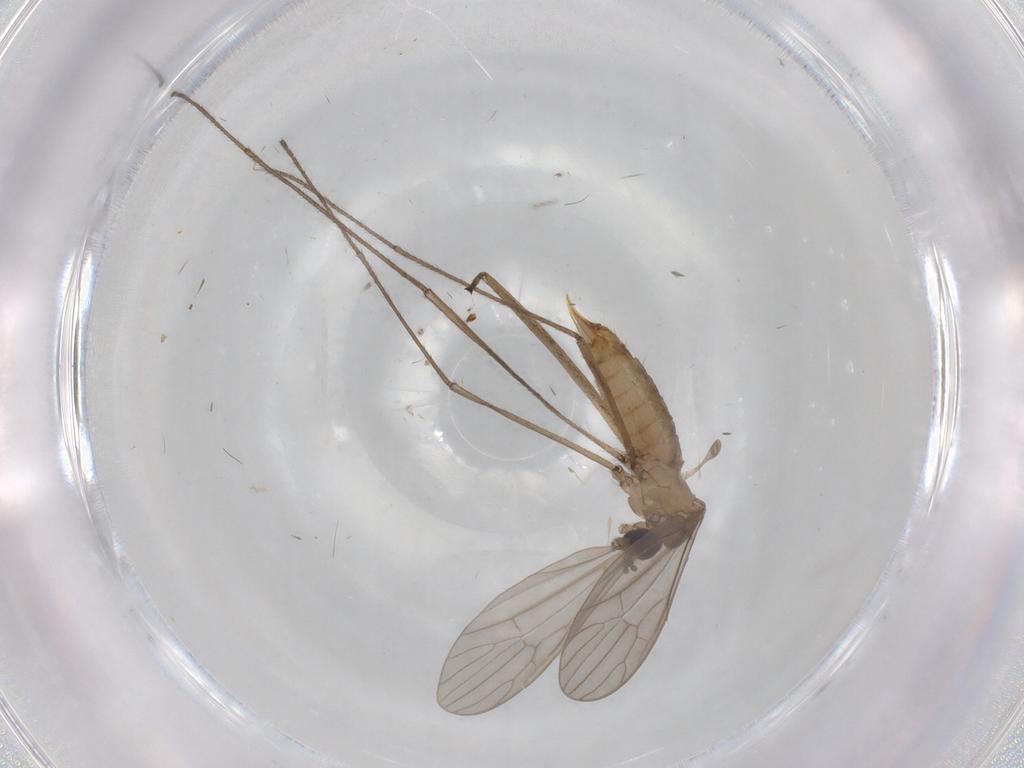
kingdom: Animalia
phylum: Arthropoda
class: Insecta
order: Diptera
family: Limoniidae
